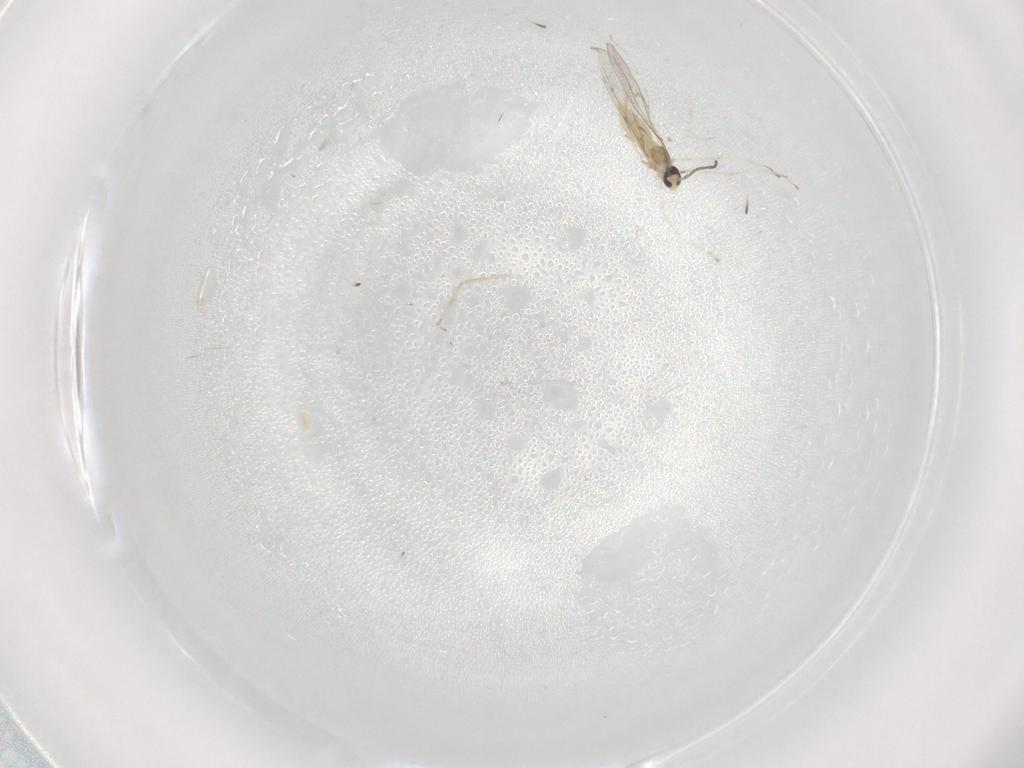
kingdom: Animalia
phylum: Arthropoda
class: Insecta
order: Diptera
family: Cecidomyiidae
